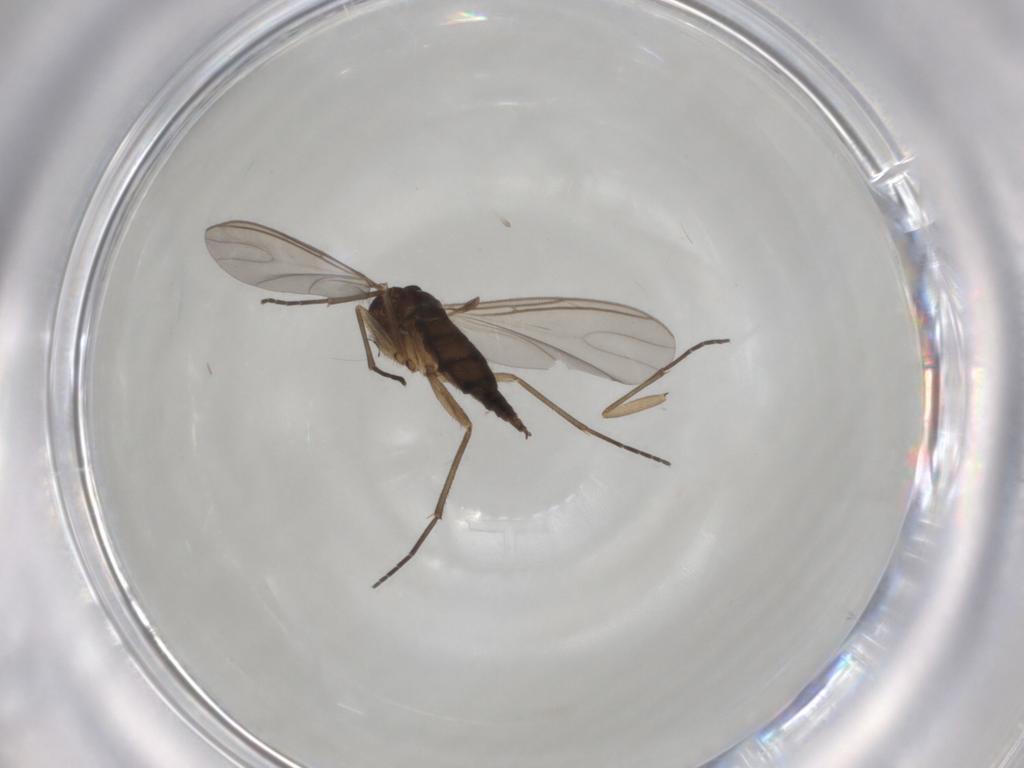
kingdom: Animalia
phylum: Arthropoda
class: Insecta
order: Diptera
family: Sciaridae
